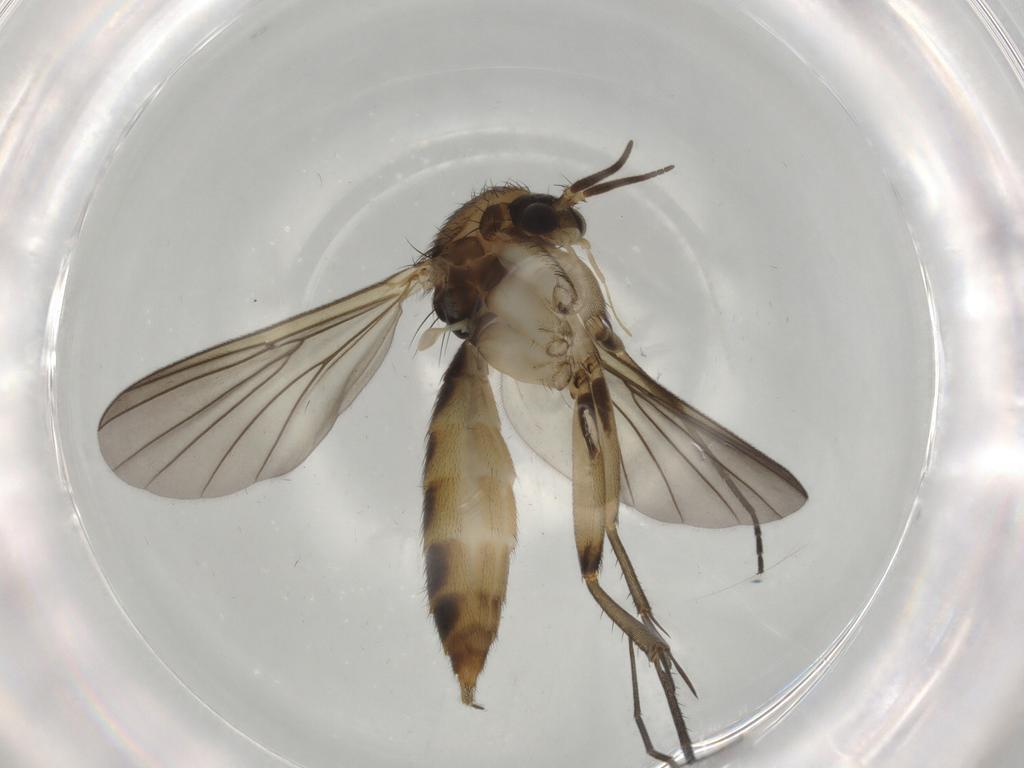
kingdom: Animalia
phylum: Arthropoda
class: Insecta
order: Diptera
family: Mycetophilidae
